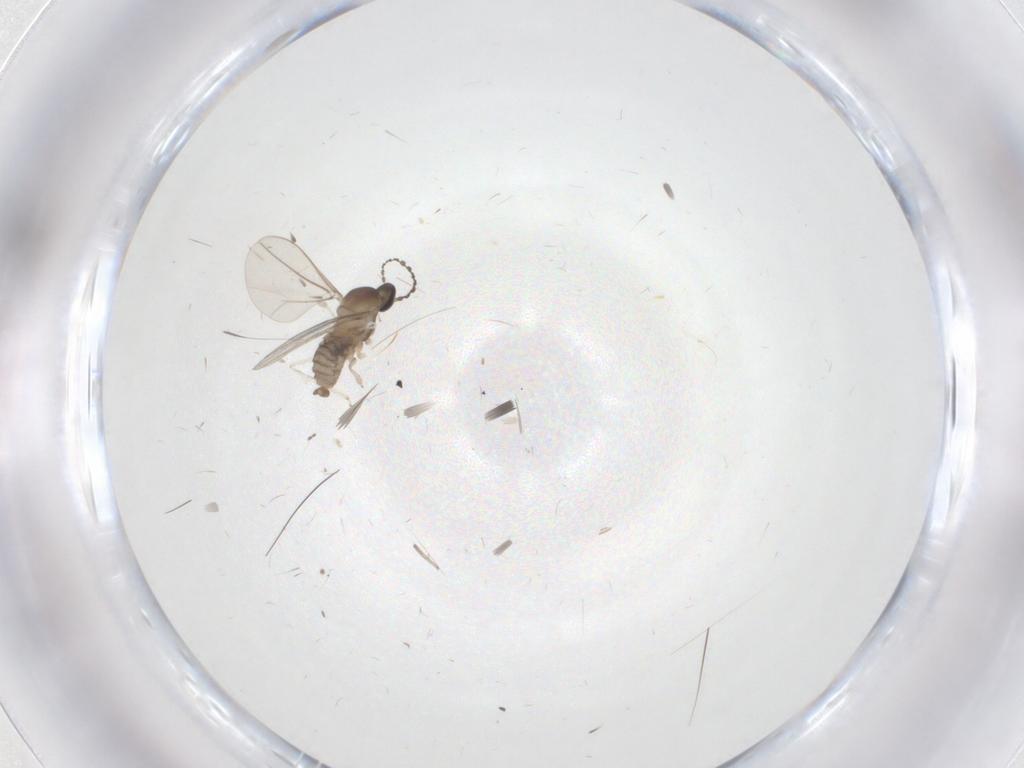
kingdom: Animalia
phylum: Arthropoda
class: Insecta
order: Diptera
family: Cecidomyiidae
